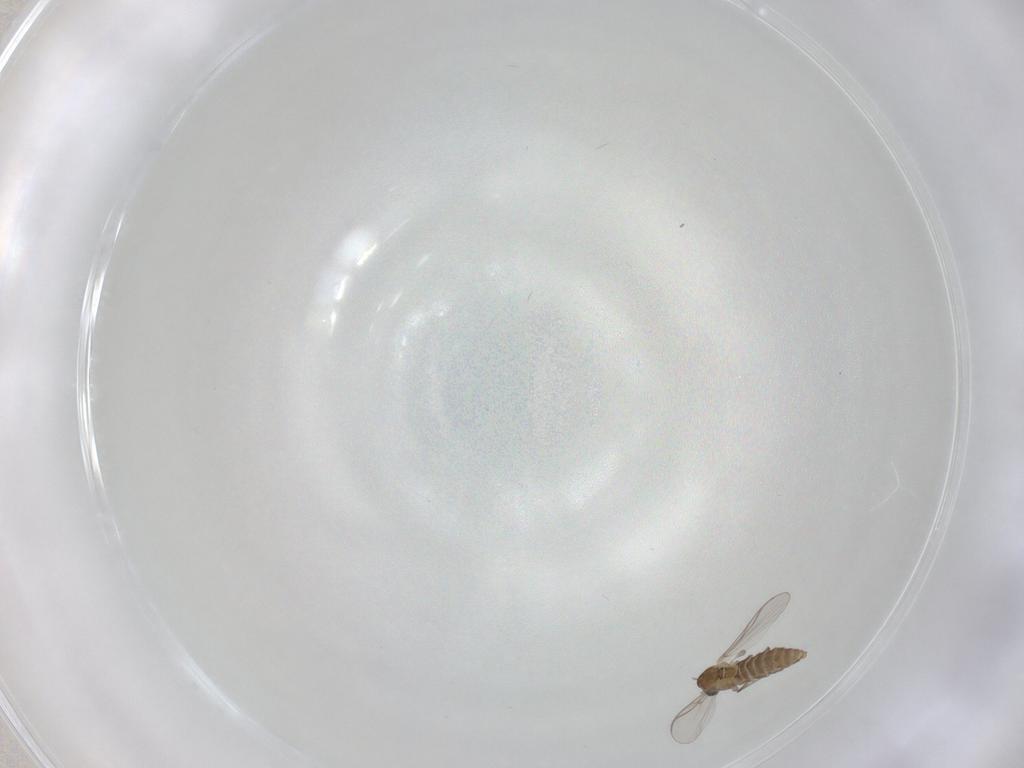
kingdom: Animalia
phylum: Arthropoda
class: Insecta
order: Diptera
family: Chironomidae
